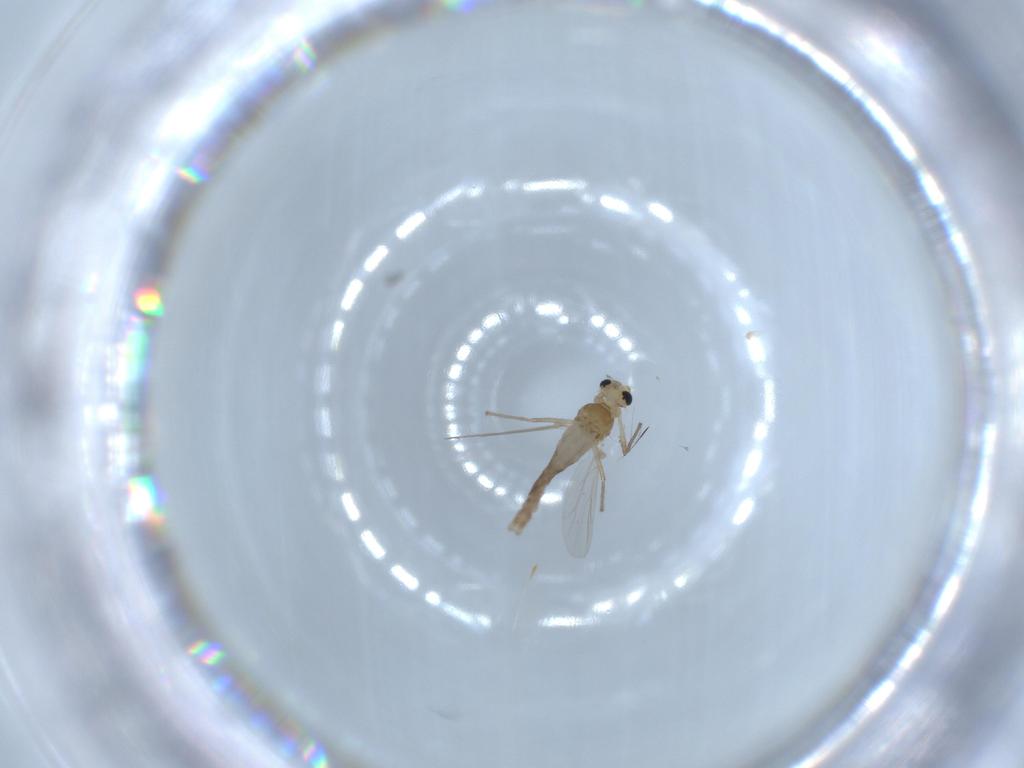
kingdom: Animalia
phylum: Arthropoda
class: Insecta
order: Diptera
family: Chironomidae
